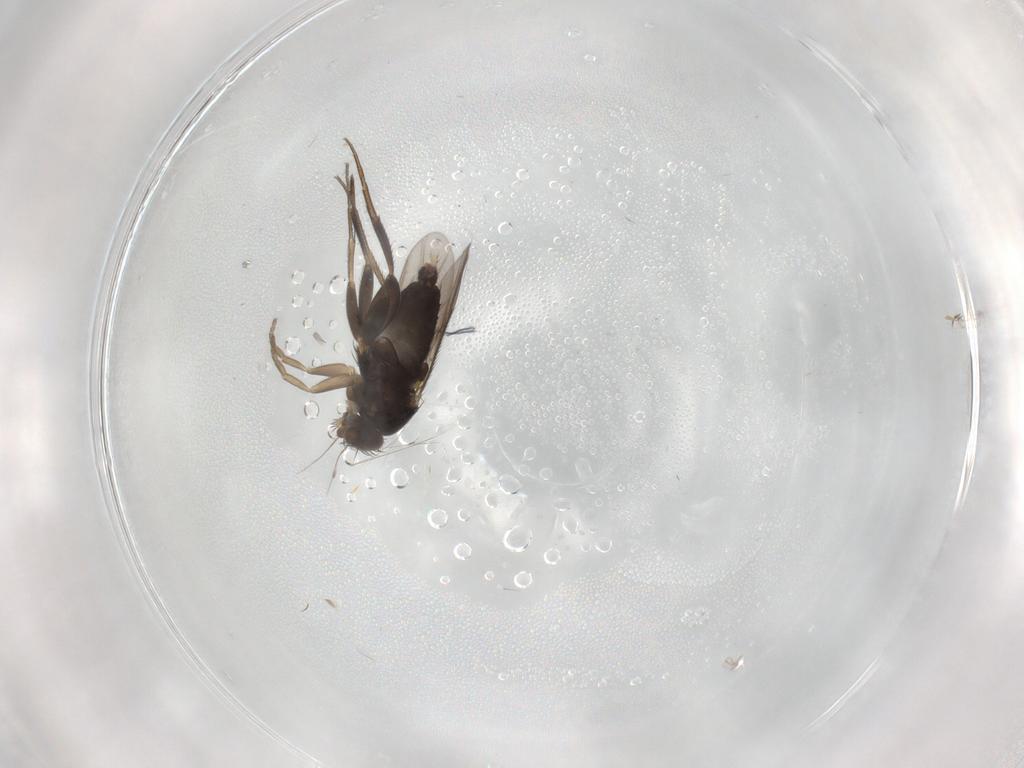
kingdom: Animalia
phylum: Arthropoda
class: Insecta
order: Diptera
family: Phoridae
